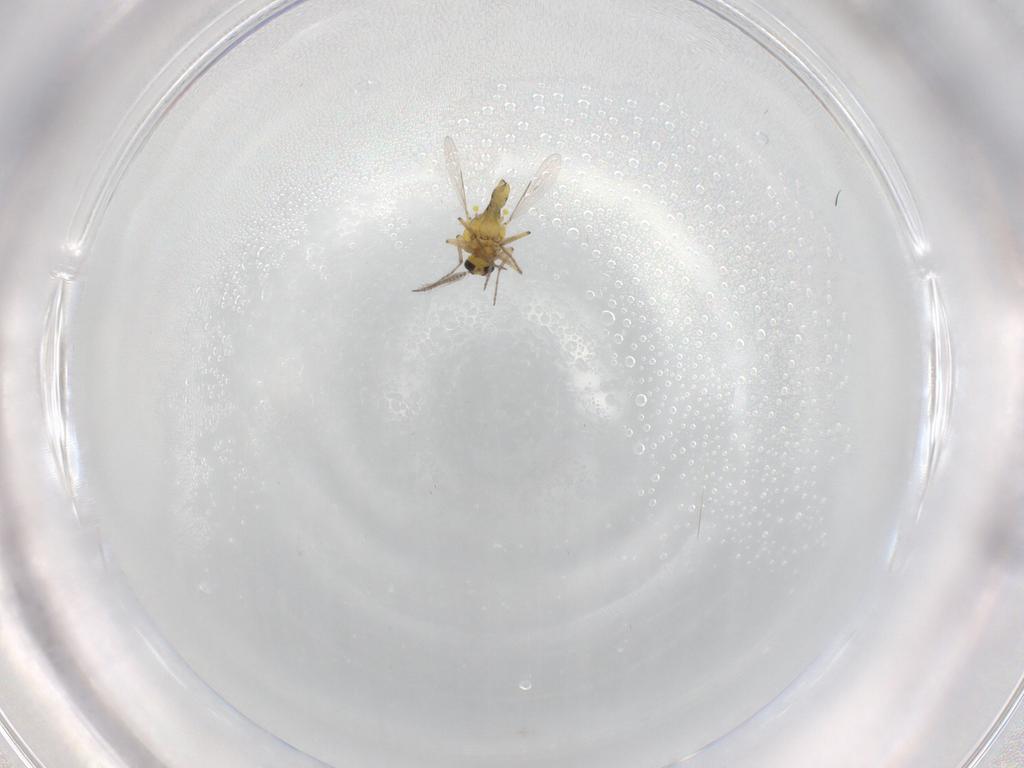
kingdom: Animalia
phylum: Arthropoda
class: Insecta
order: Diptera
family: Ceratopogonidae
